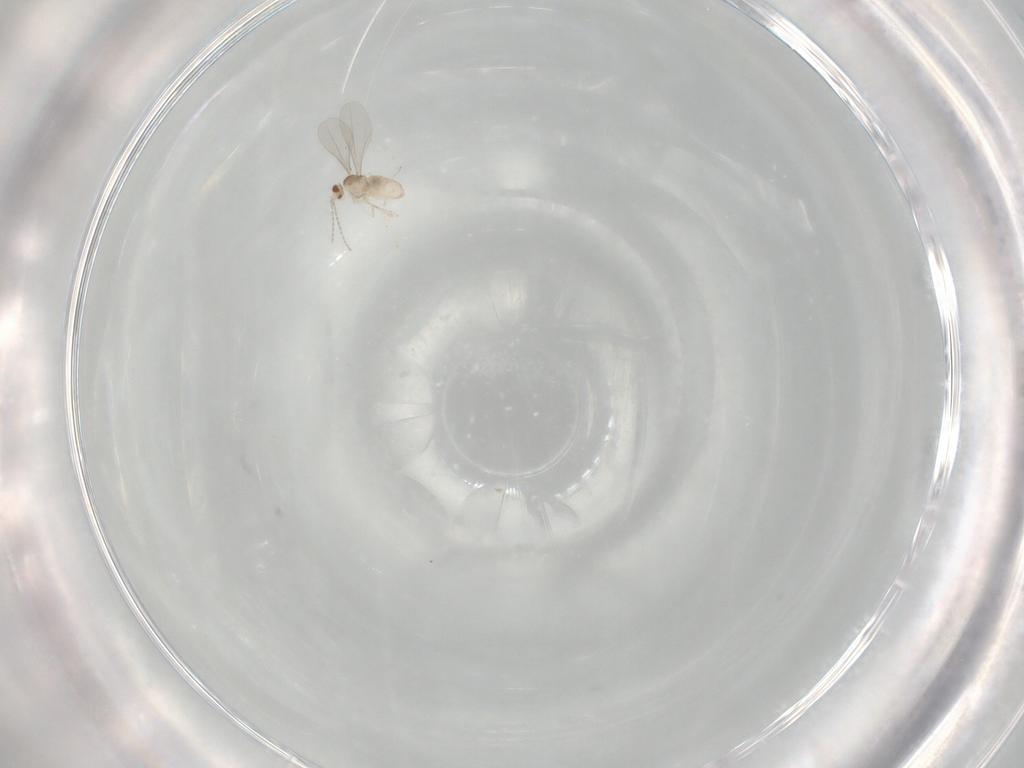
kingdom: Animalia
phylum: Arthropoda
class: Insecta
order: Diptera
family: Cecidomyiidae
